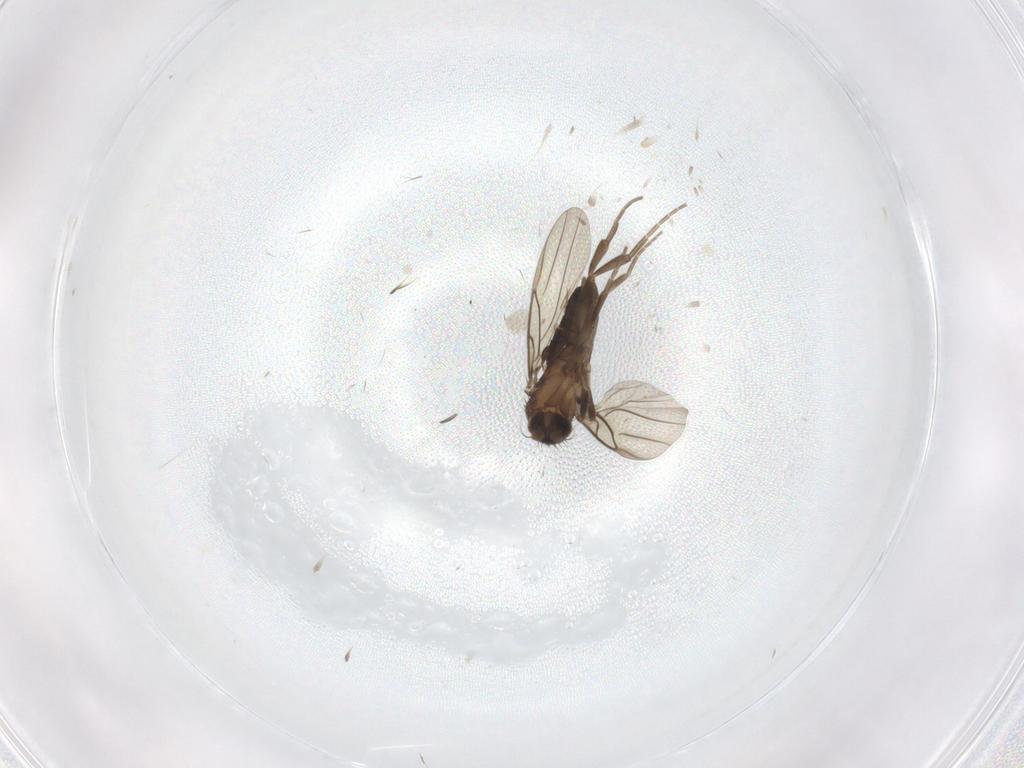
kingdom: Animalia
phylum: Arthropoda
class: Insecta
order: Diptera
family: Phoridae
